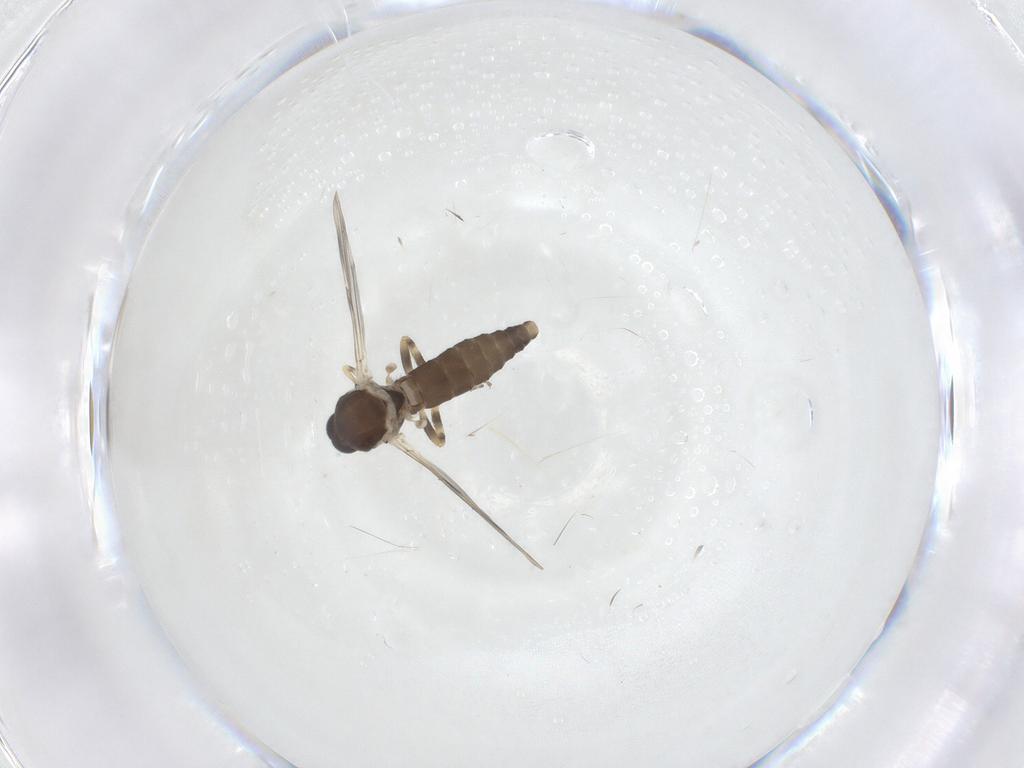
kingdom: Animalia
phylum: Arthropoda
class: Insecta
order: Diptera
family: Ceratopogonidae
